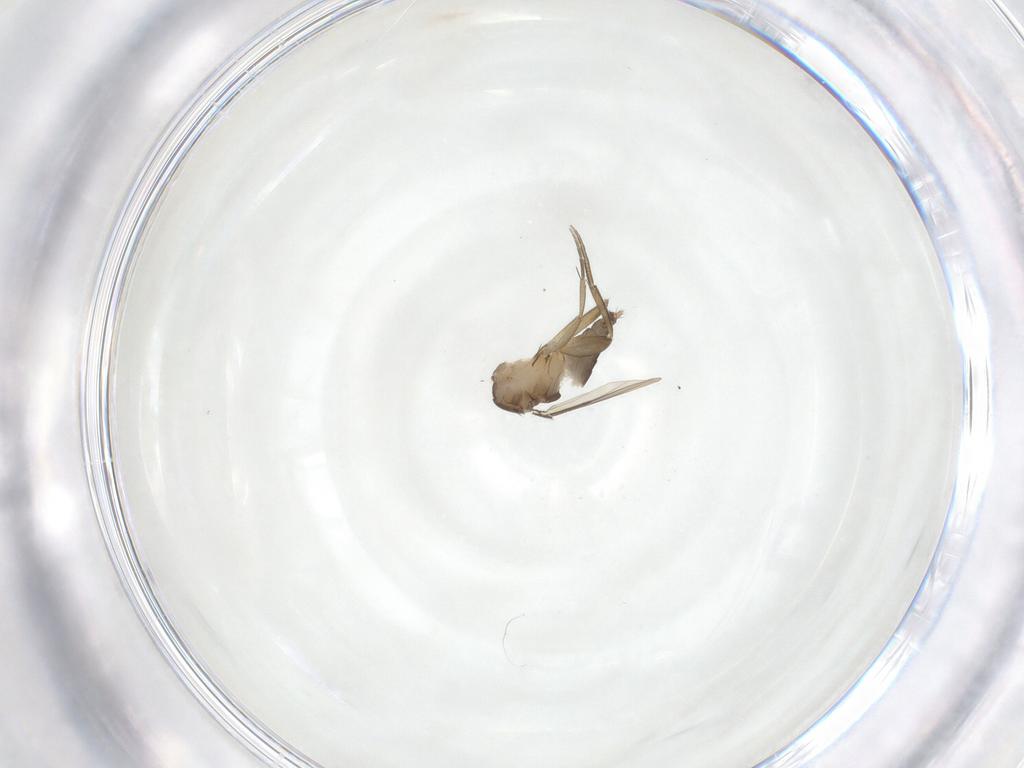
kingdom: Animalia
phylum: Arthropoda
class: Insecta
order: Diptera
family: Phoridae
